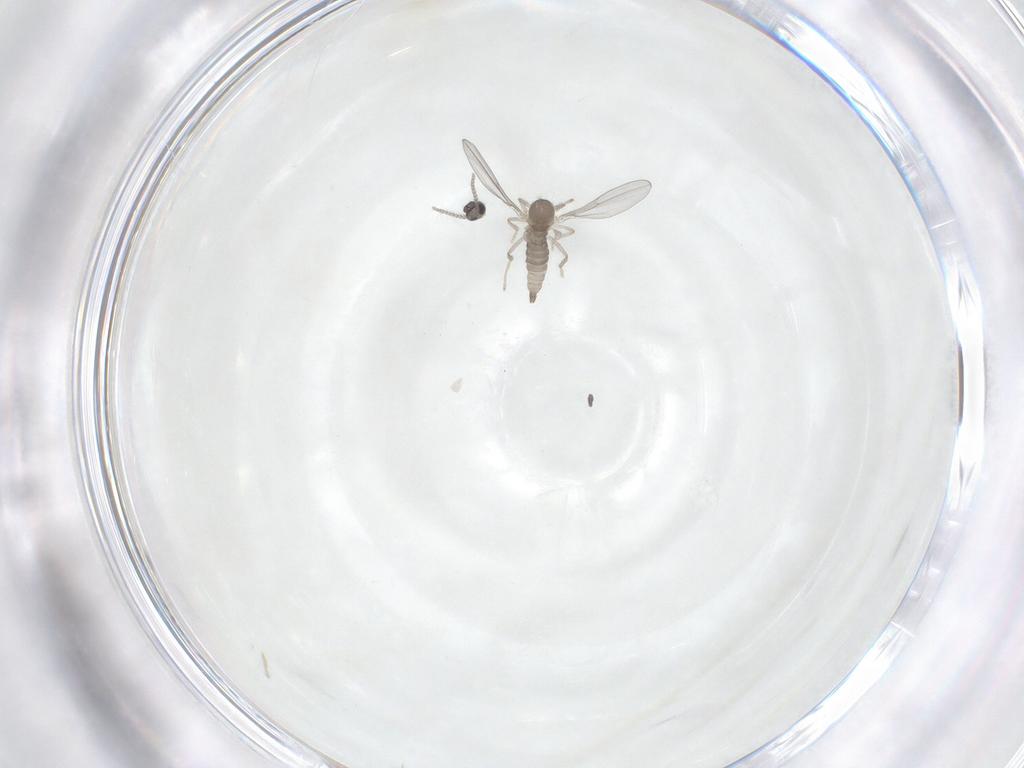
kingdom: Animalia
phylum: Arthropoda
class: Insecta
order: Diptera
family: Cecidomyiidae
